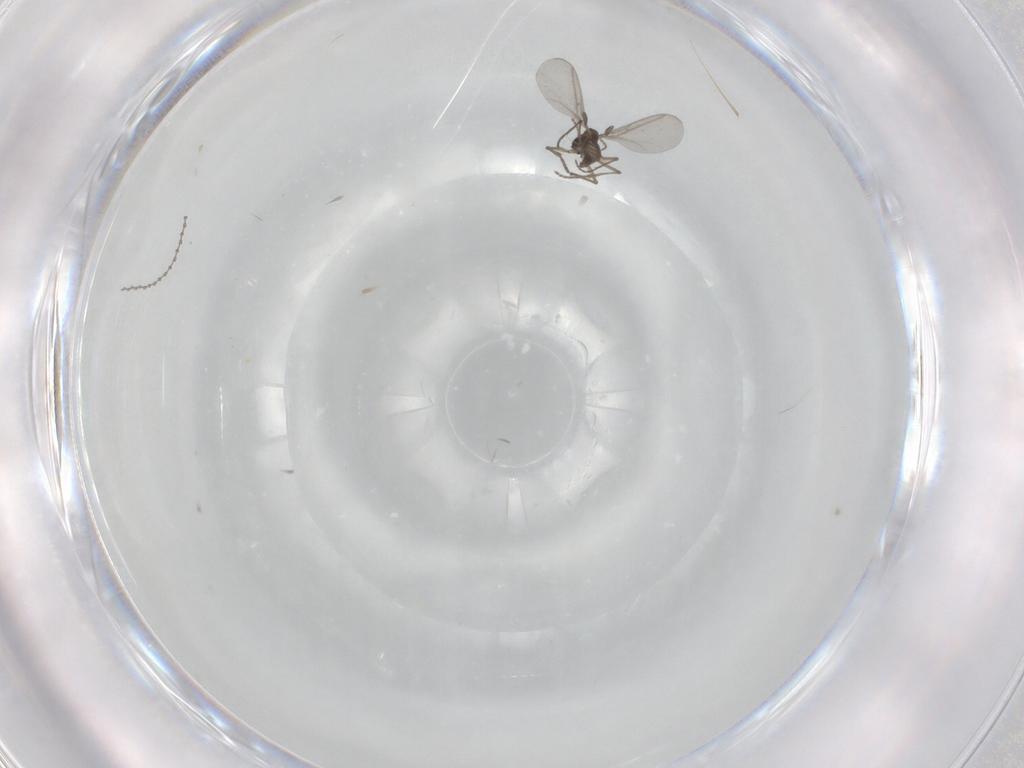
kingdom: Animalia
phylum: Arthropoda
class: Insecta
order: Diptera
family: Sciaridae
